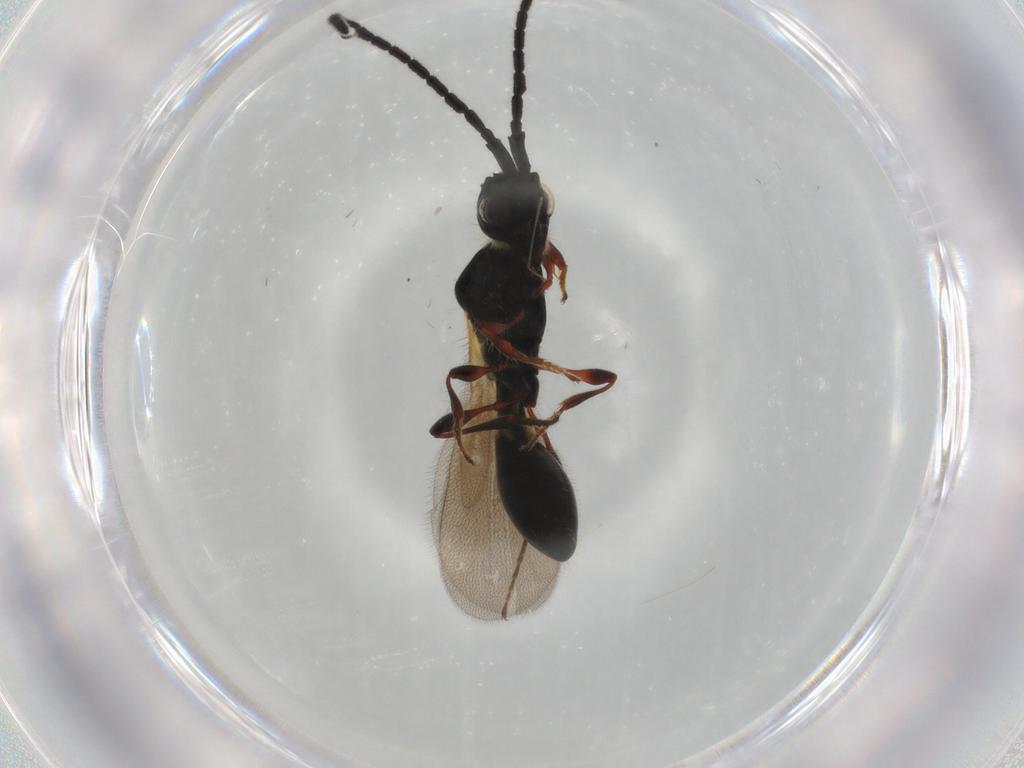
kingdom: Animalia
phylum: Arthropoda
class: Insecta
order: Hymenoptera
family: Diapriidae
